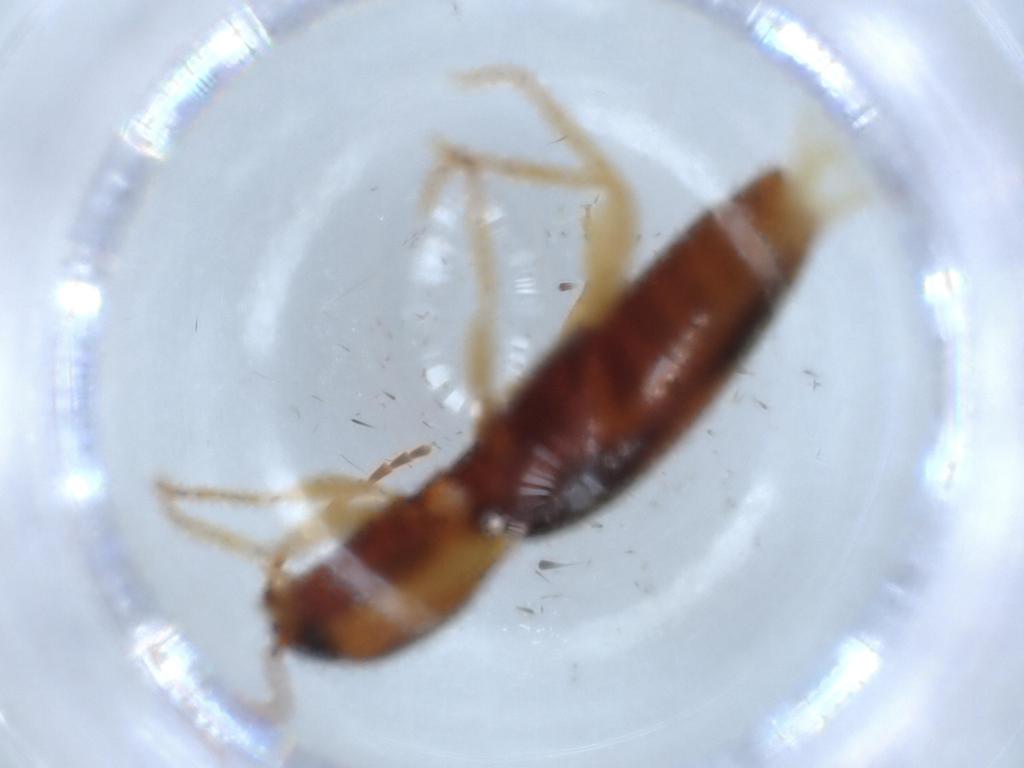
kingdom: Animalia
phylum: Arthropoda
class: Insecta
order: Coleoptera
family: Elateridae
